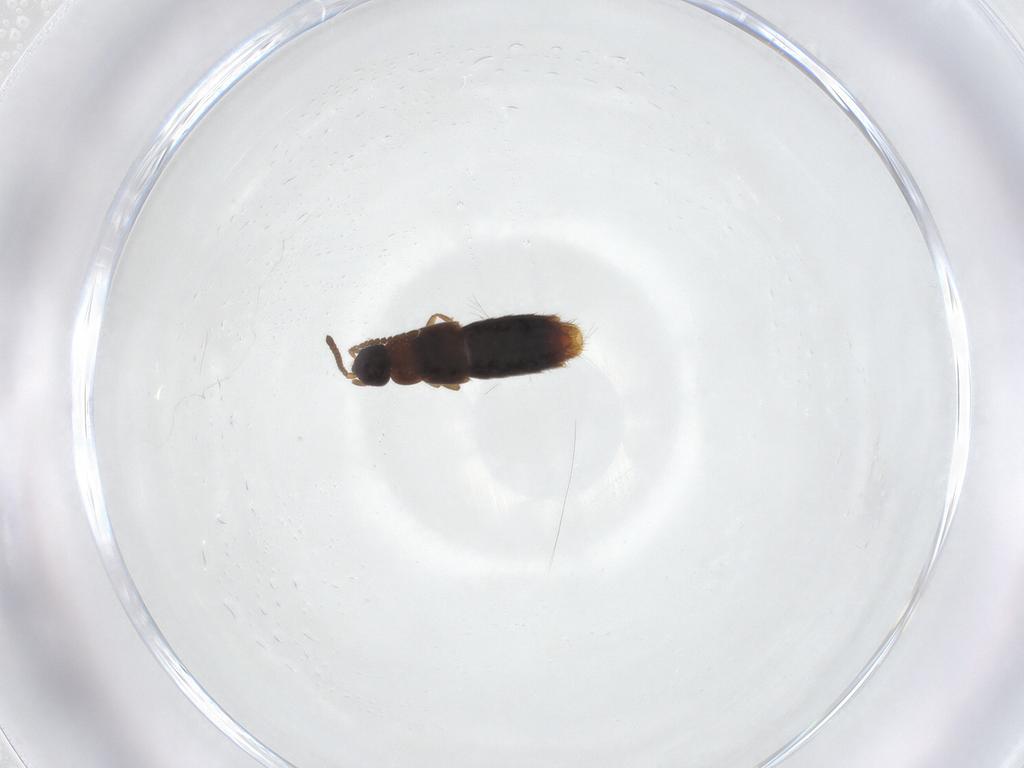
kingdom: Animalia
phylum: Arthropoda
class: Insecta
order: Coleoptera
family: Staphylinidae
